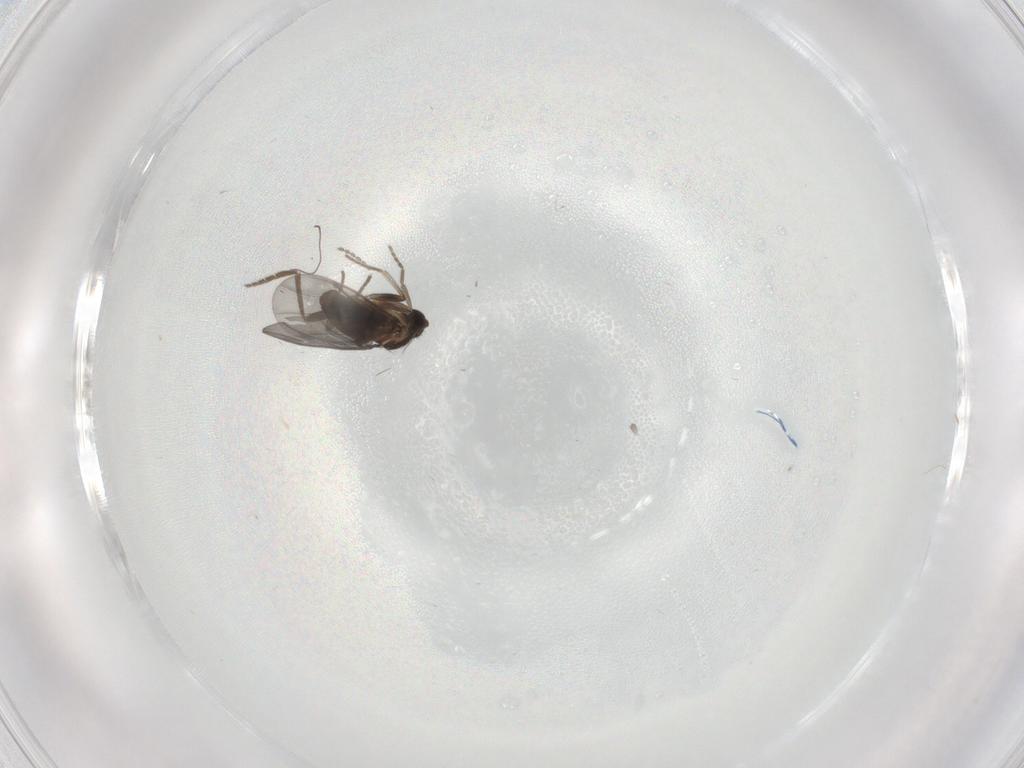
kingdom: Animalia
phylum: Arthropoda
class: Insecta
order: Diptera
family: Phoridae
